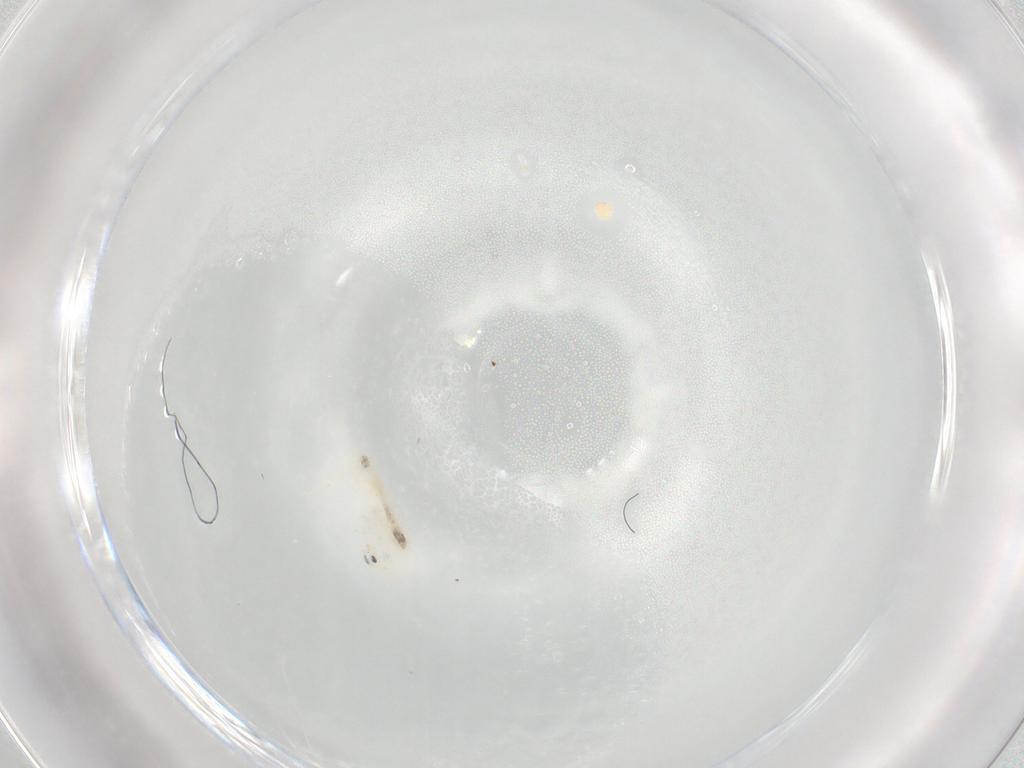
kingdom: Animalia
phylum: Arthropoda
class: Collembola
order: Entomobryomorpha
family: Entomobryidae
